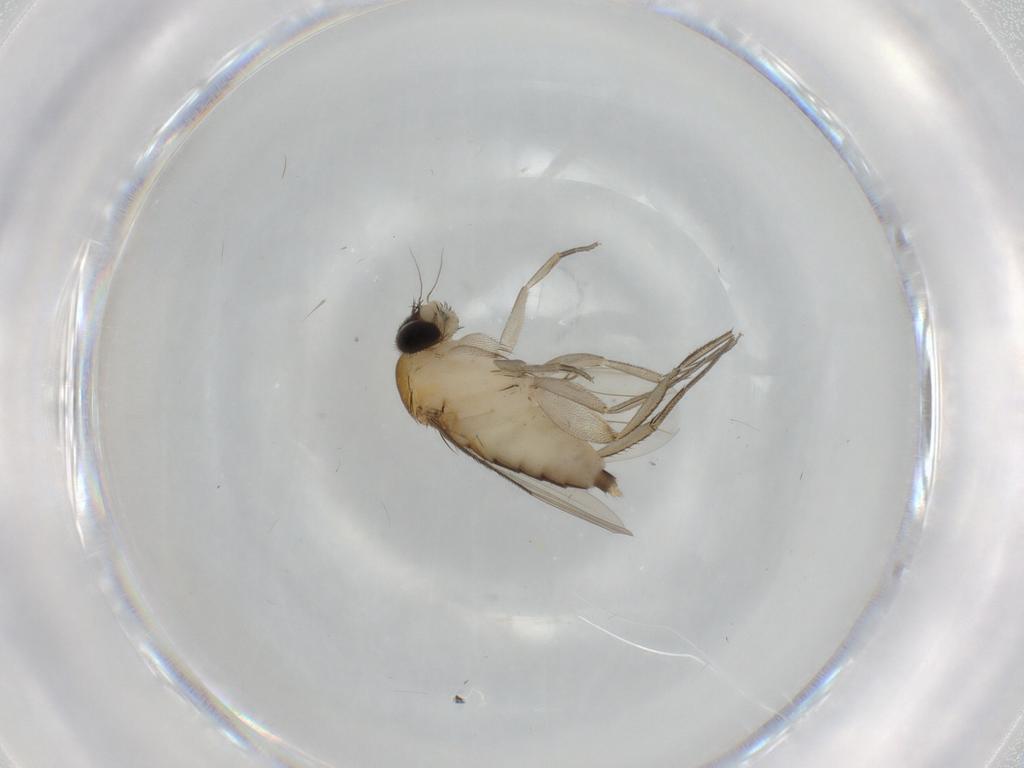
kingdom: Animalia
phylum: Arthropoda
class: Insecta
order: Diptera
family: Phoridae
